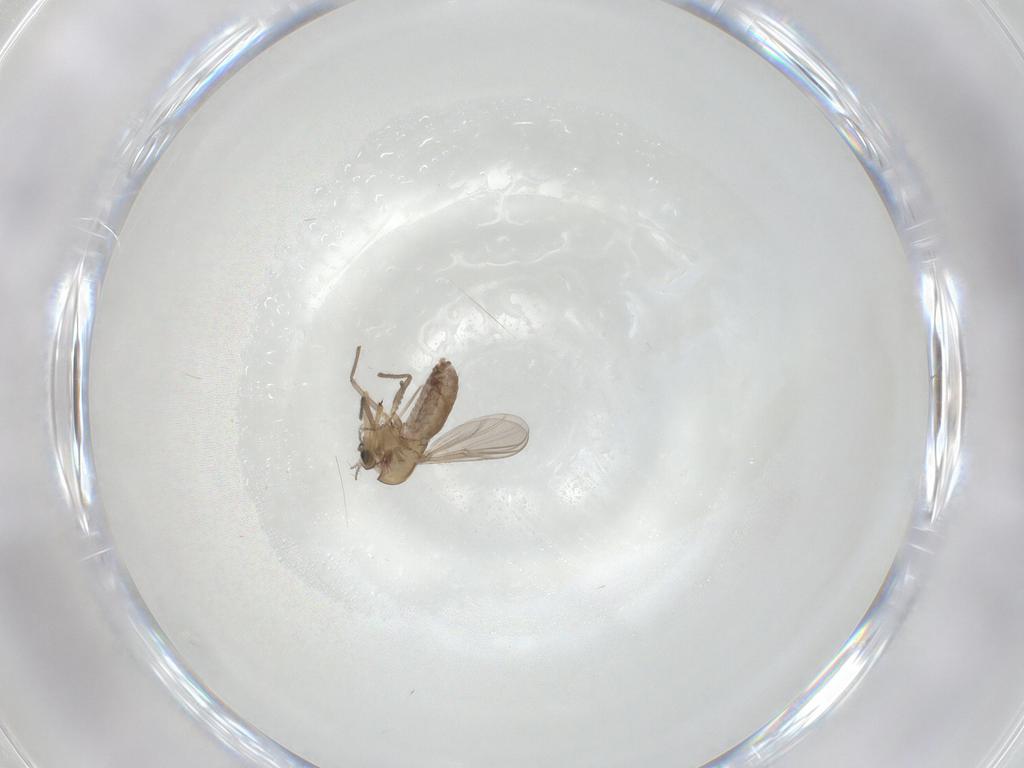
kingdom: Animalia
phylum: Arthropoda
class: Insecta
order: Diptera
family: Chironomidae
